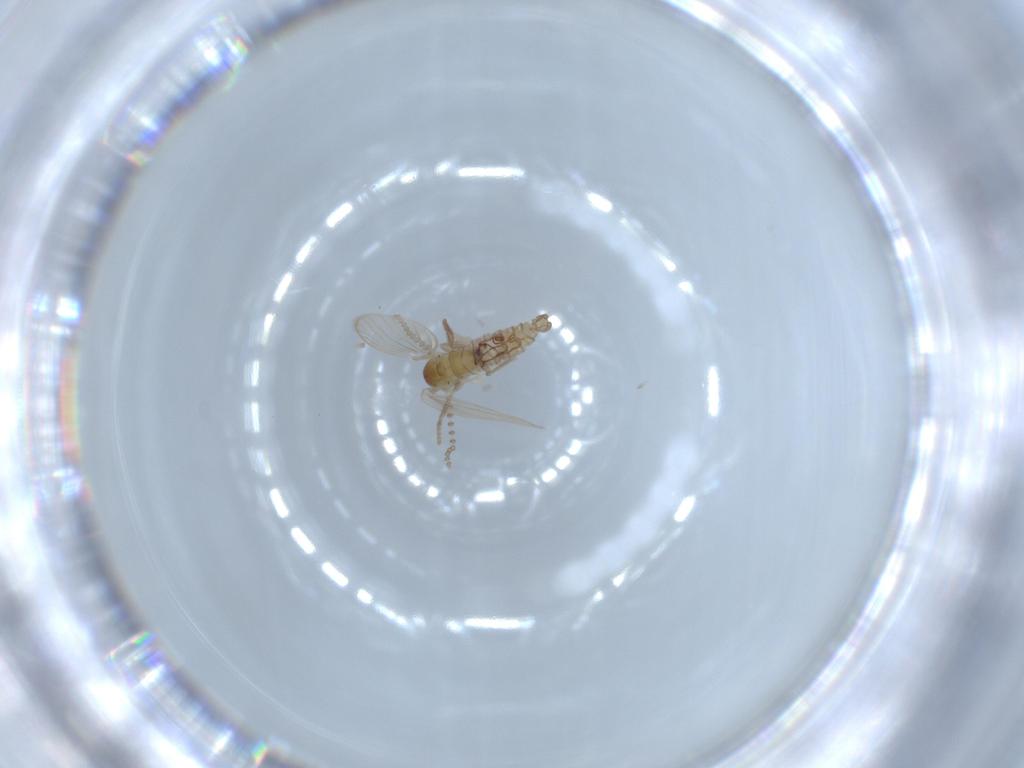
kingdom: Animalia
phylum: Arthropoda
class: Insecta
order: Diptera
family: Psychodidae
